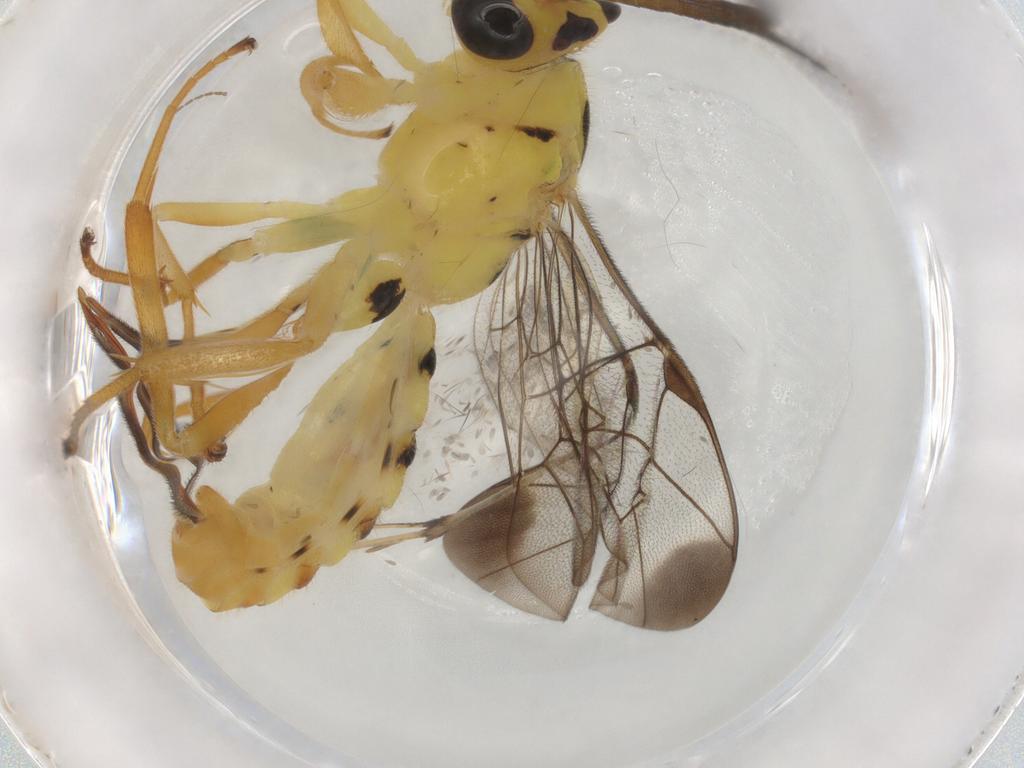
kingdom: Animalia
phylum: Arthropoda
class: Insecta
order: Hymenoptera
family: Ichneumonidae
